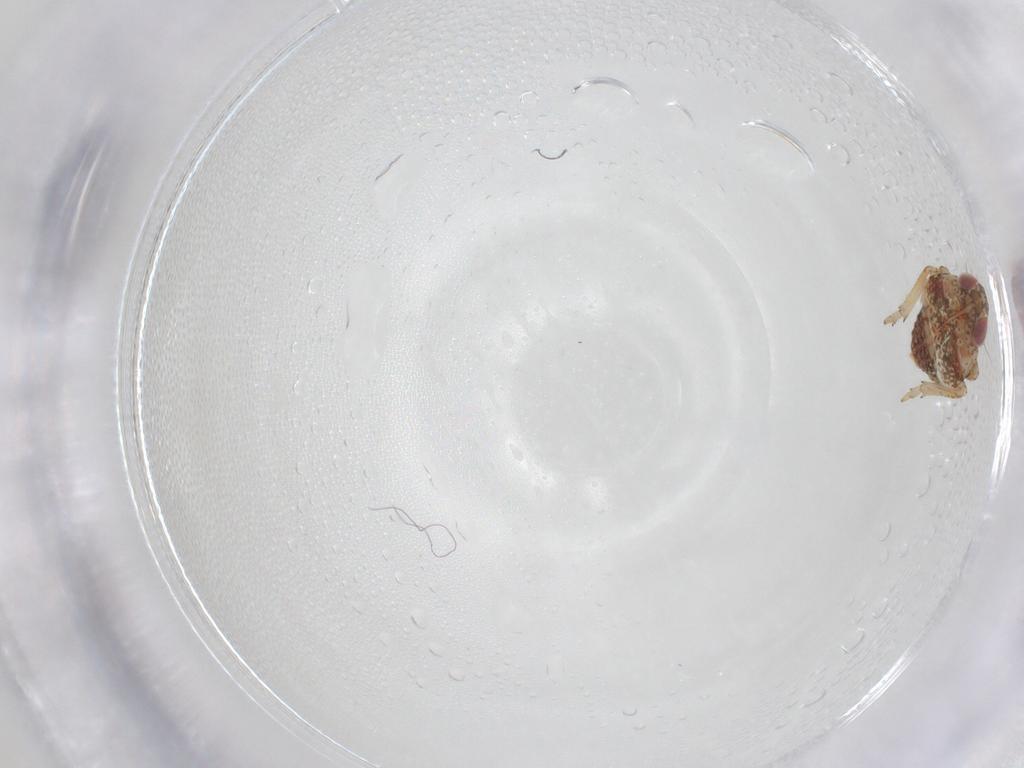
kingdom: Animalia
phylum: Arthropoda
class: Insecta
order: Hemiptera
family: Issidae
